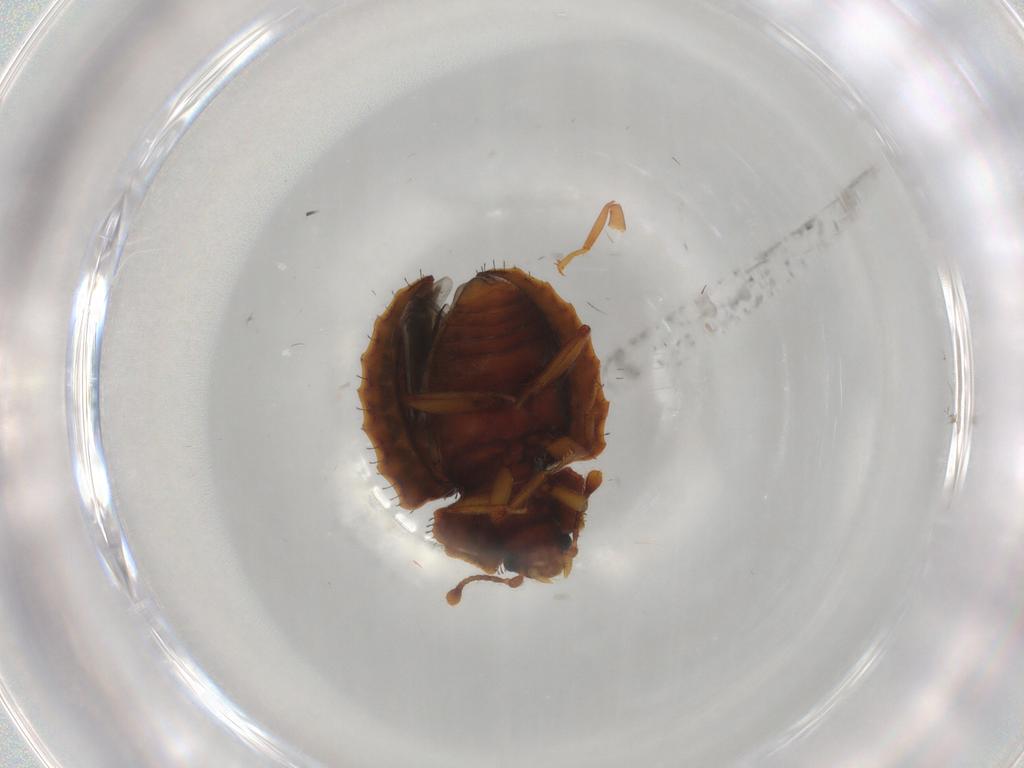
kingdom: Animalia
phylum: Arthropoda
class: Insecta
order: Coleoptera
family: Discolomatidae
